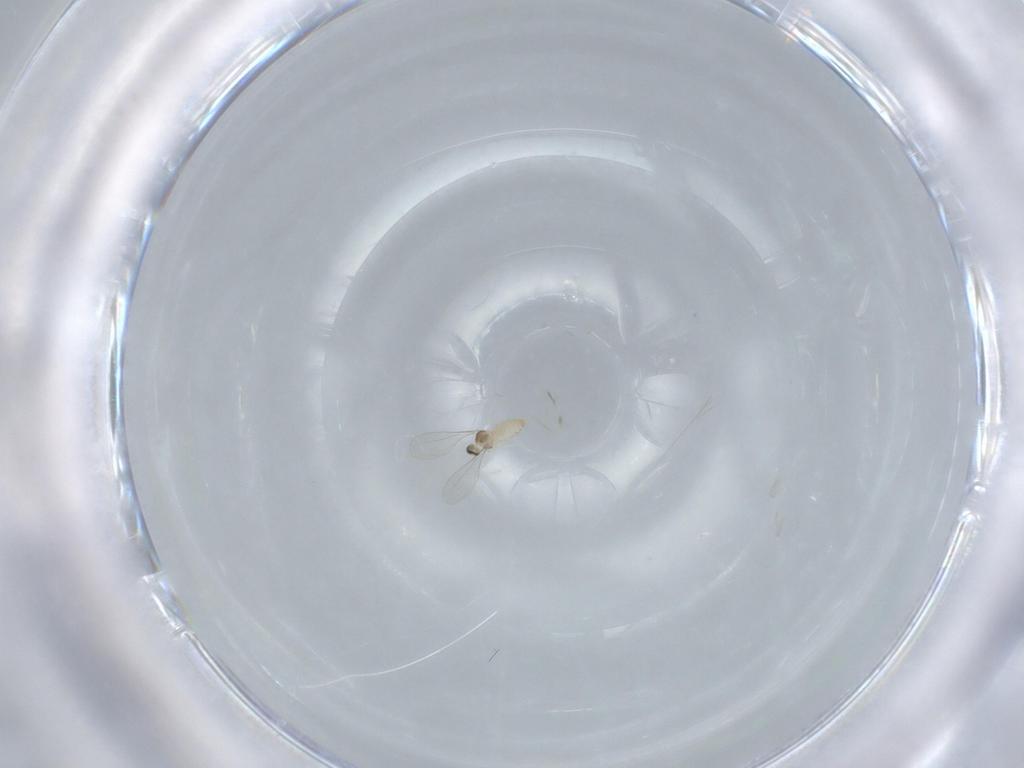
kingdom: Animalia
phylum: Arthropoda
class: Insecta
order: Diptera
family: Cecidomyiidae
